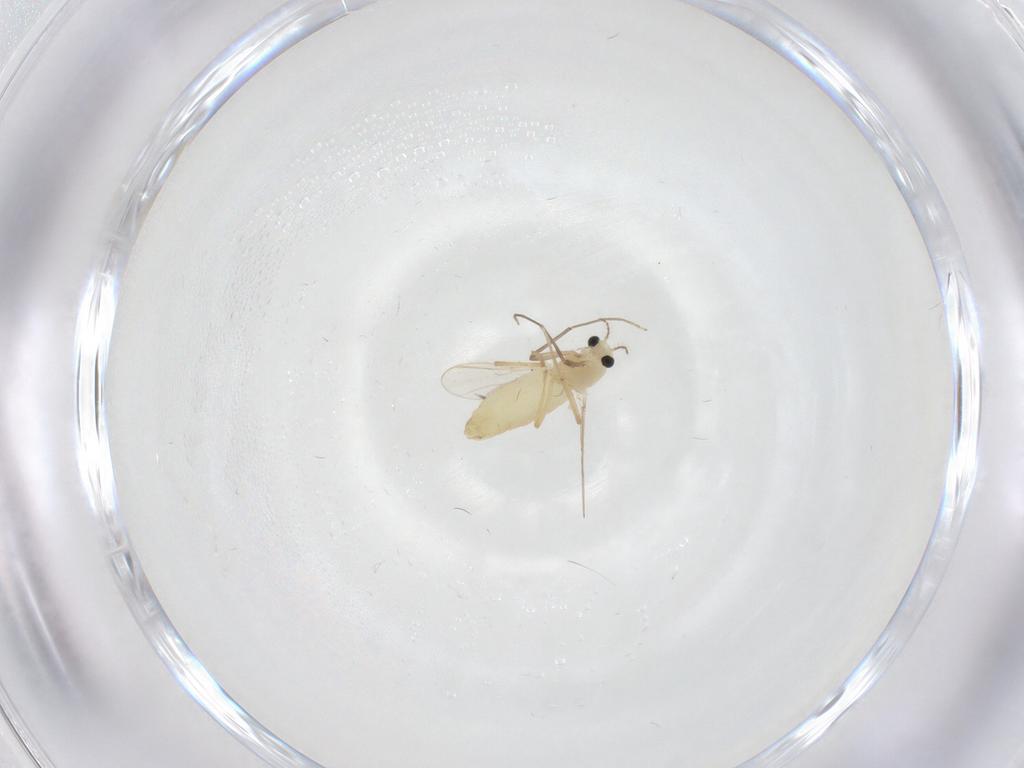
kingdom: Animalia
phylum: Arthropoda
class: Insecta
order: Diptera
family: Chironomidae
